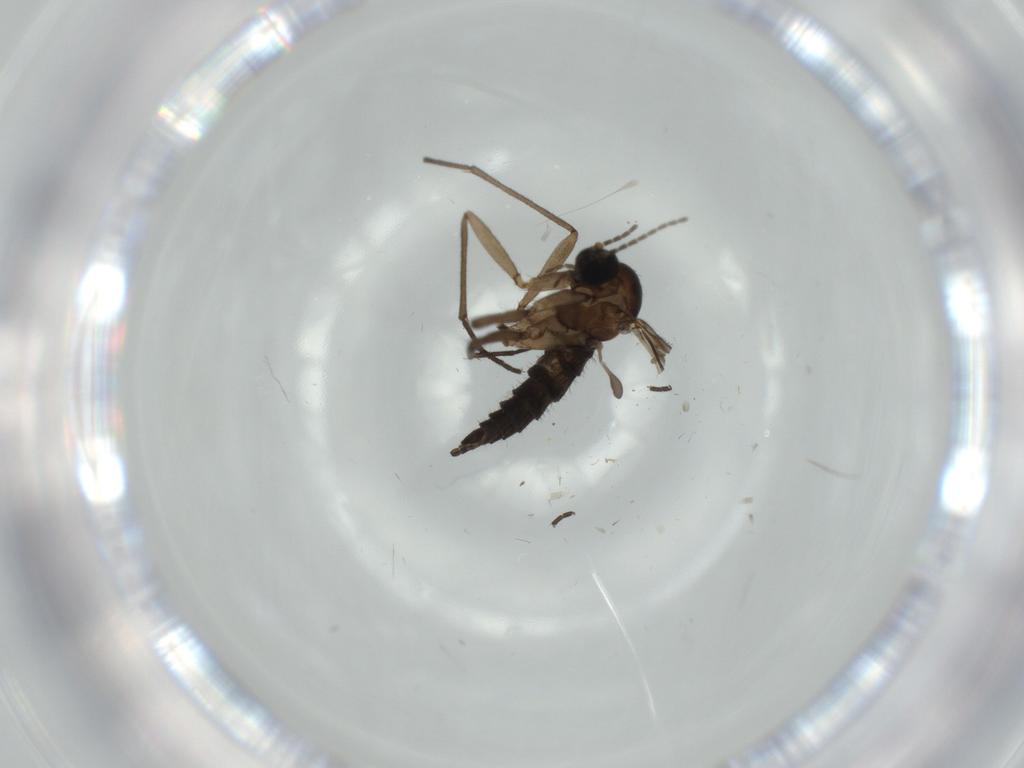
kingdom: Animalia
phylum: Arthropoda
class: Insecta
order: Diptera
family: Sciaridae
